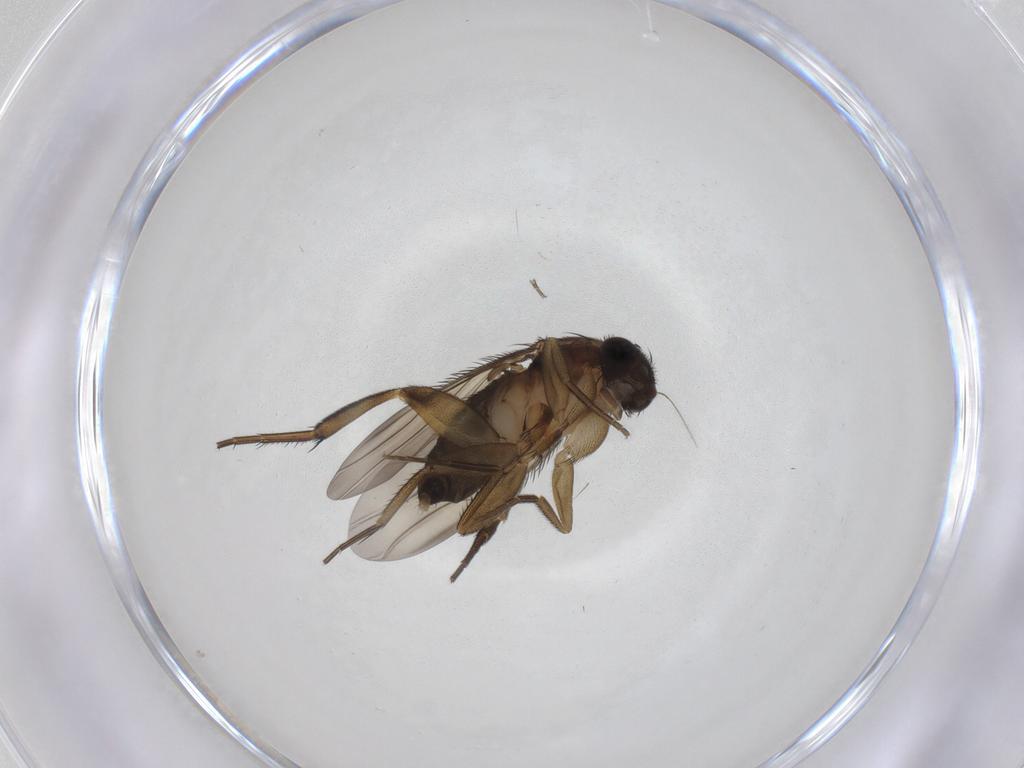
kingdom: Animalia
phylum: Arthropoda
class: Insecta
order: Diptera
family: Phoridae
